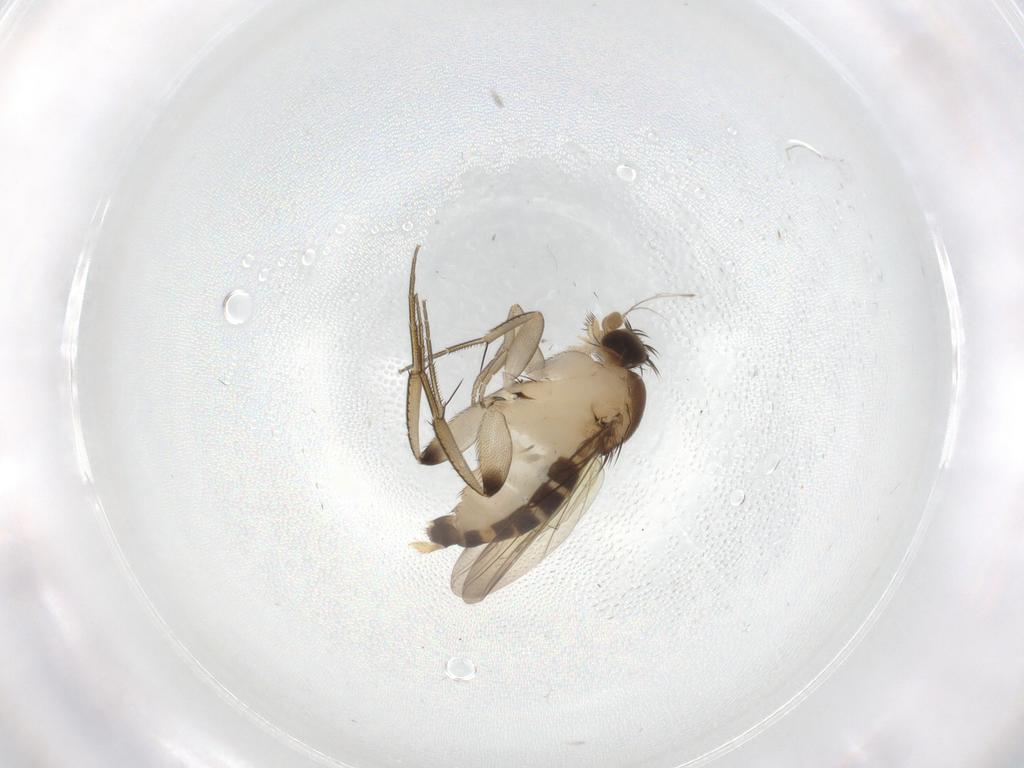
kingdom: Animalia
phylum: Arthropoda
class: Insecta
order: Diptera
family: Phoridae
